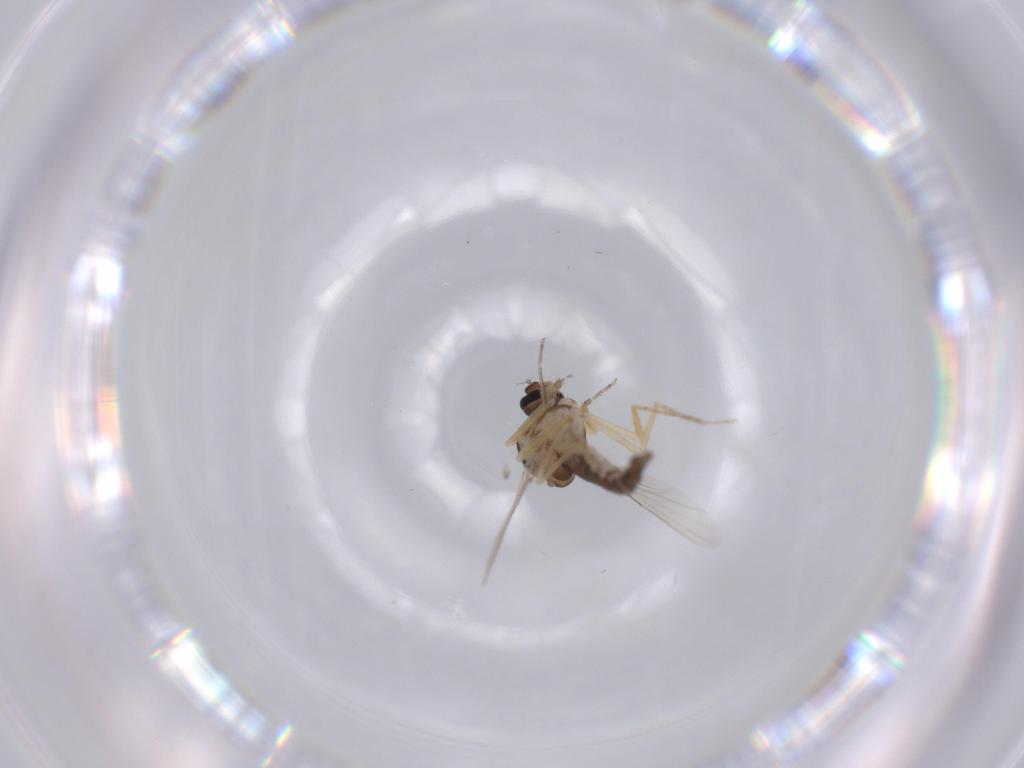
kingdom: Animalia
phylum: Arthropoda
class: Insecta
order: Diptera
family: Ceratopogonidae
